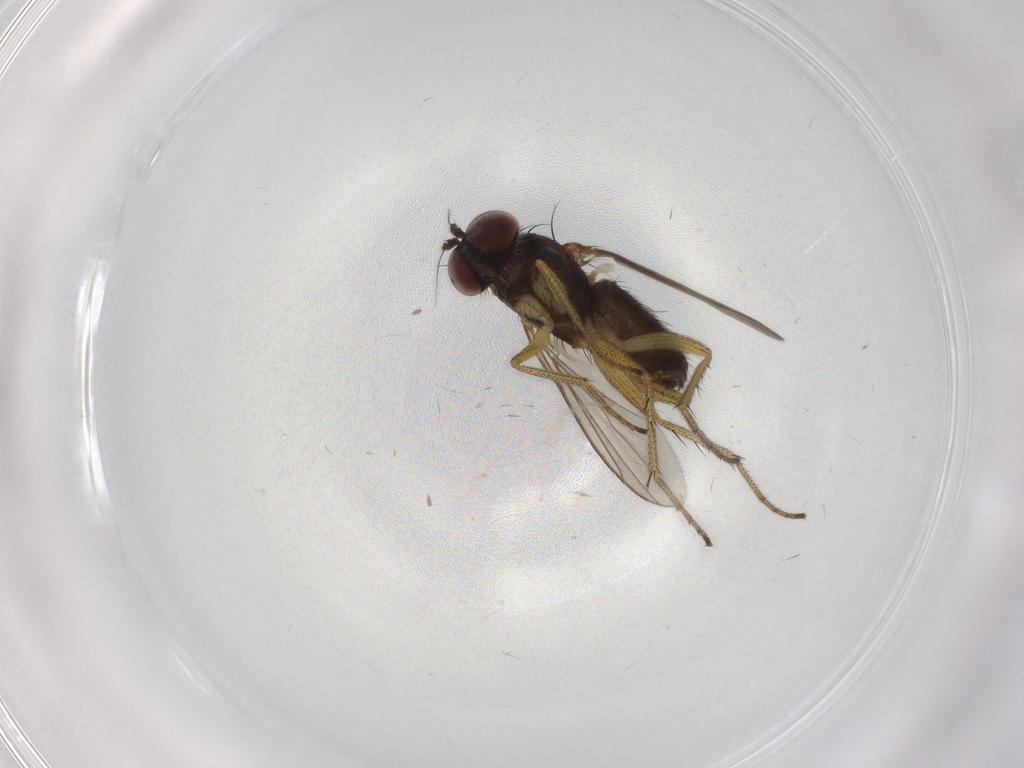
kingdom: Animalia
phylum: Arthropoda
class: Insecta
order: Diptera
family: Dolichopodidae
